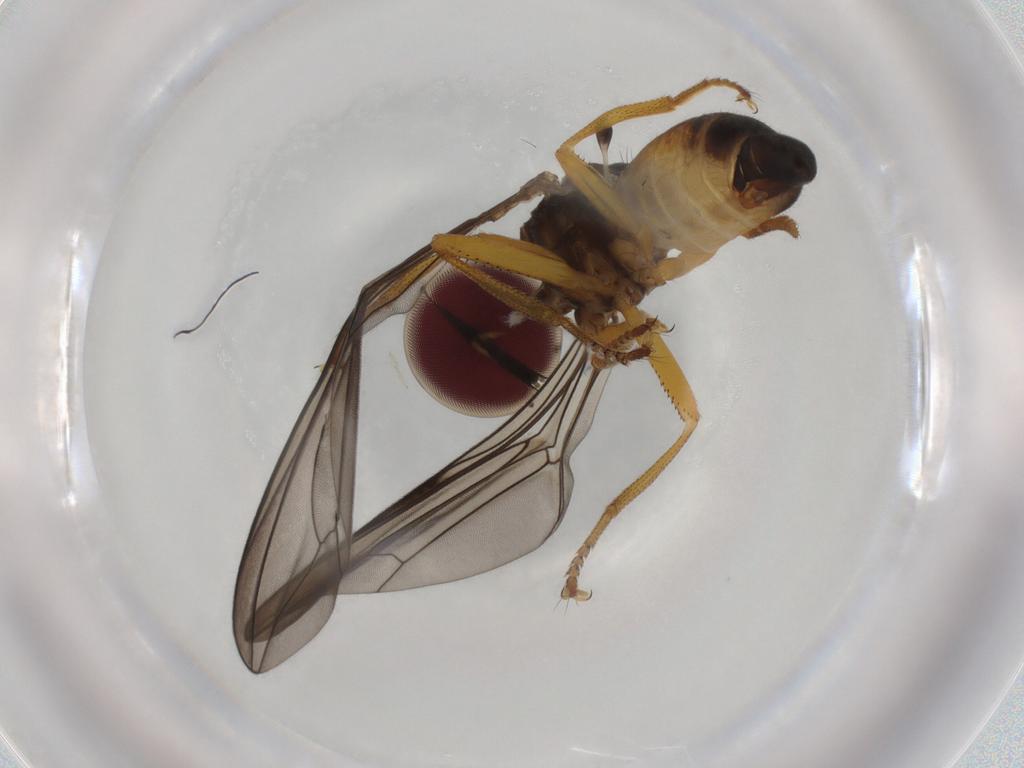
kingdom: Animalia
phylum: Arthropoda
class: Insecta
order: Diptera
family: Pipunculidae
